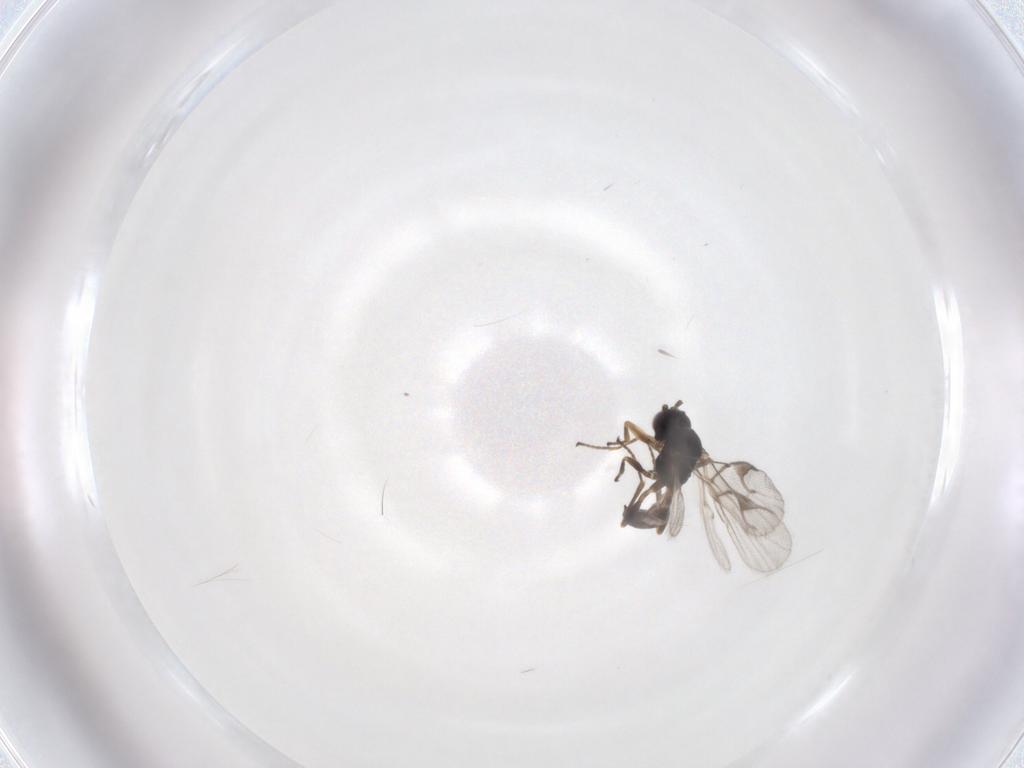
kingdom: Animalia
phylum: Arthropoda
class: Insecta
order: Hymenoptera
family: Braconidae
